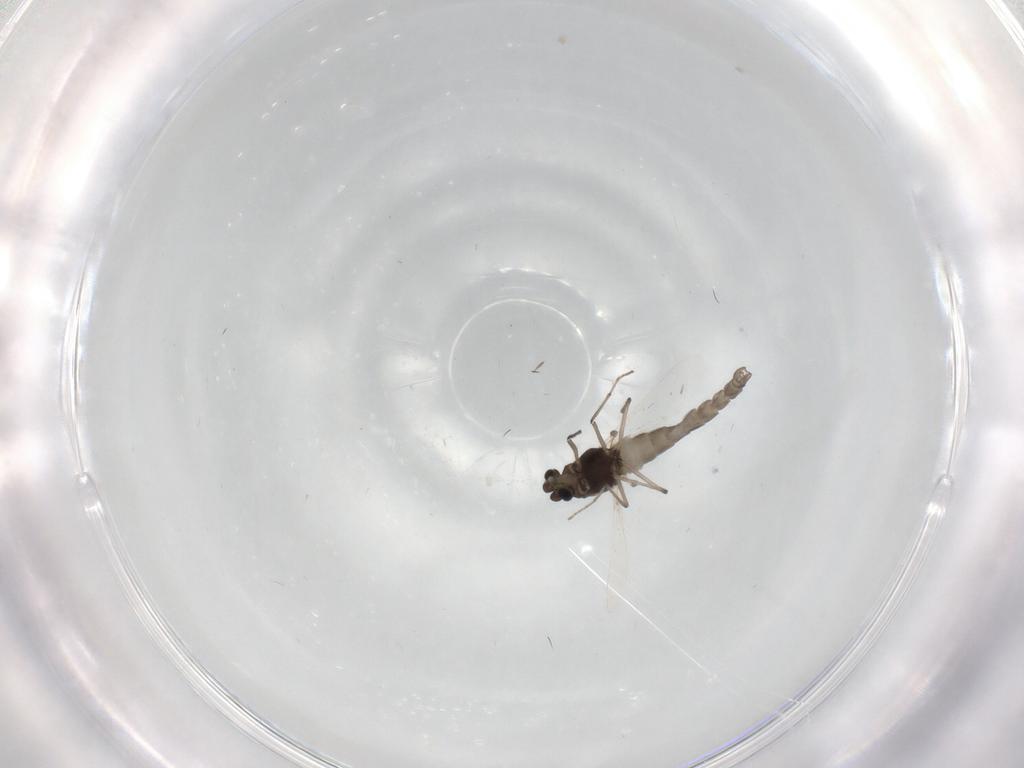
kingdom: Animalia
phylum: Arthropoda
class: Insecta
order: Diptera
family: Chironomidae
